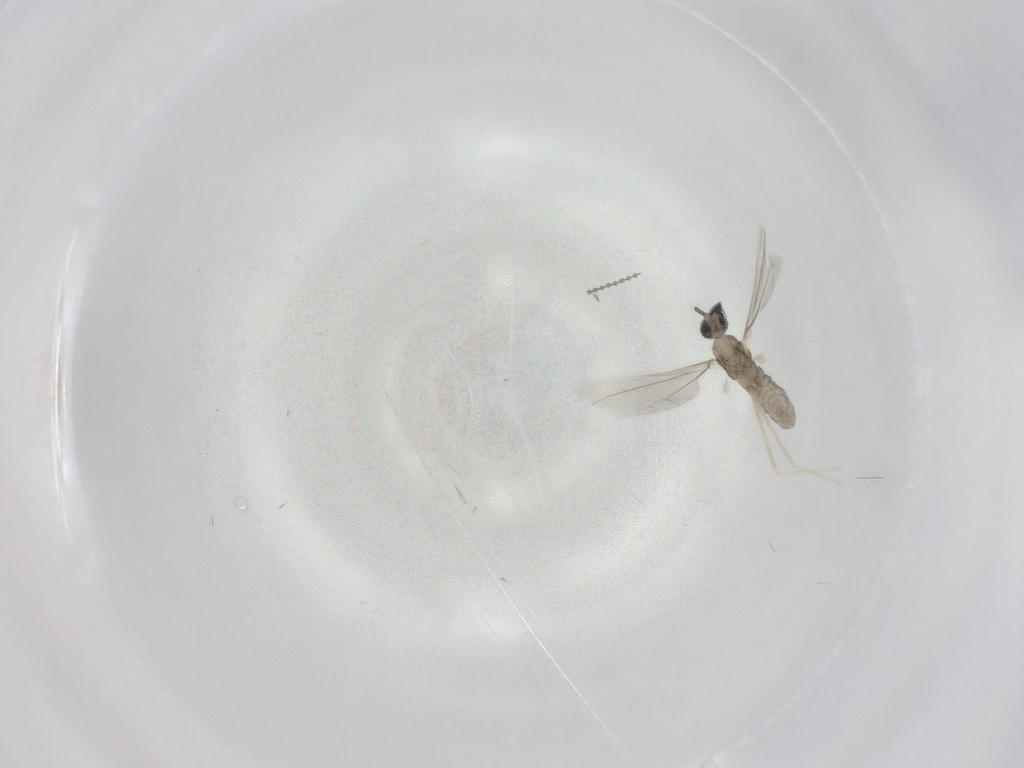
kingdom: Animalia
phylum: Arthropoda
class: Insecta
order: Diptera
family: Cecidomyiidae
